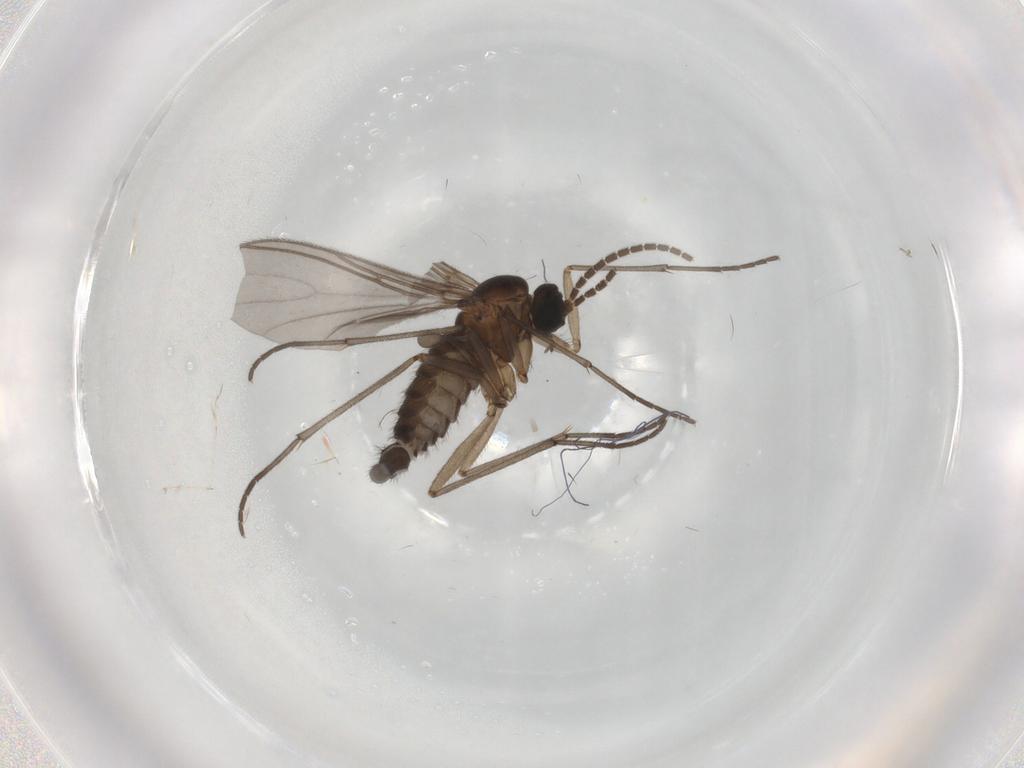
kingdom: Animalia
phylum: Arthropoda
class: Insecta
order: Diptera
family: Sciaridae
